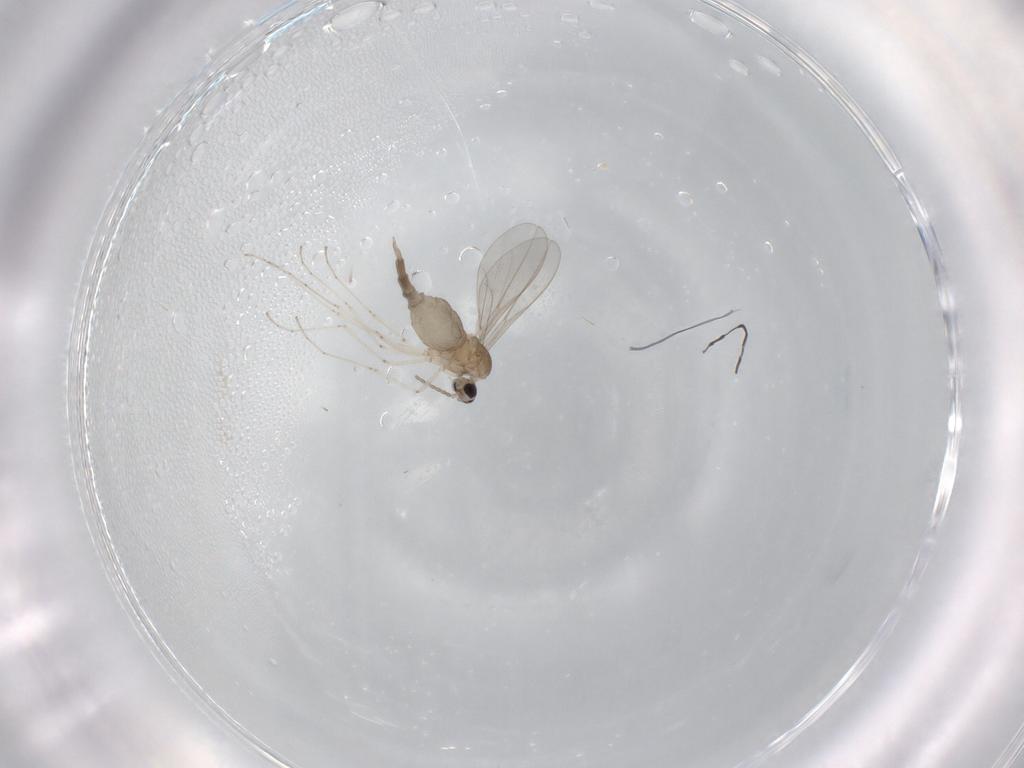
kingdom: Animalia
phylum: Arthropoda
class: Insecta
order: Diptera
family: Cecidomyiidae
